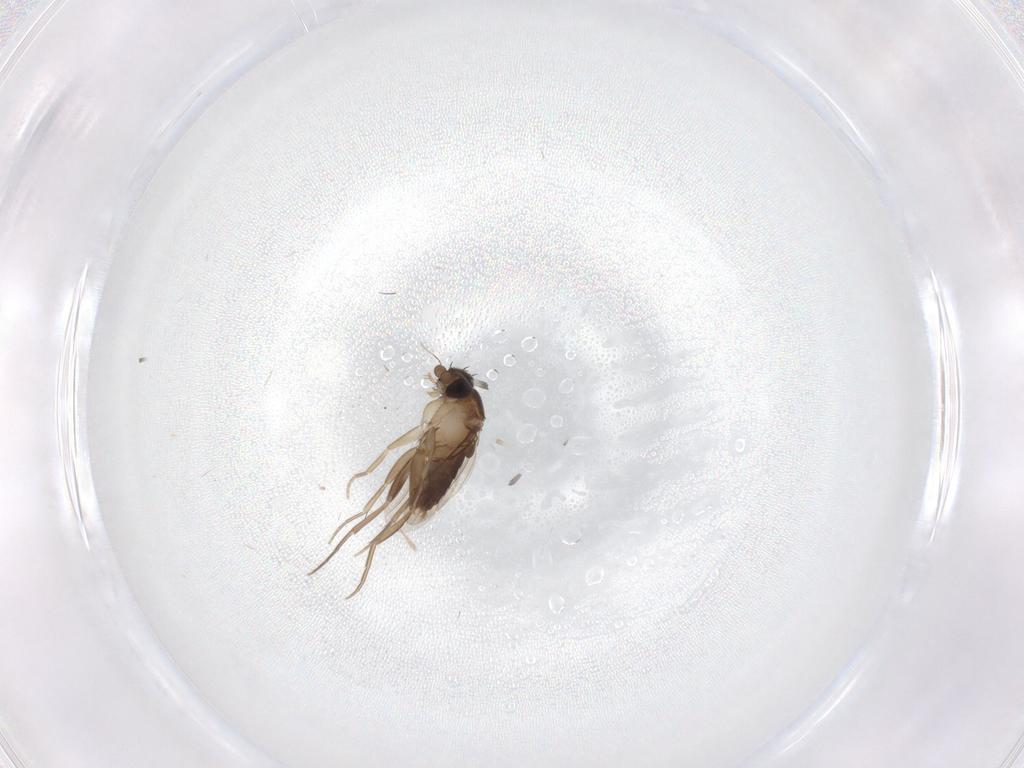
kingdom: Animalia
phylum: Arthropoda
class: Insecta
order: Diptera
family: Phoridae
